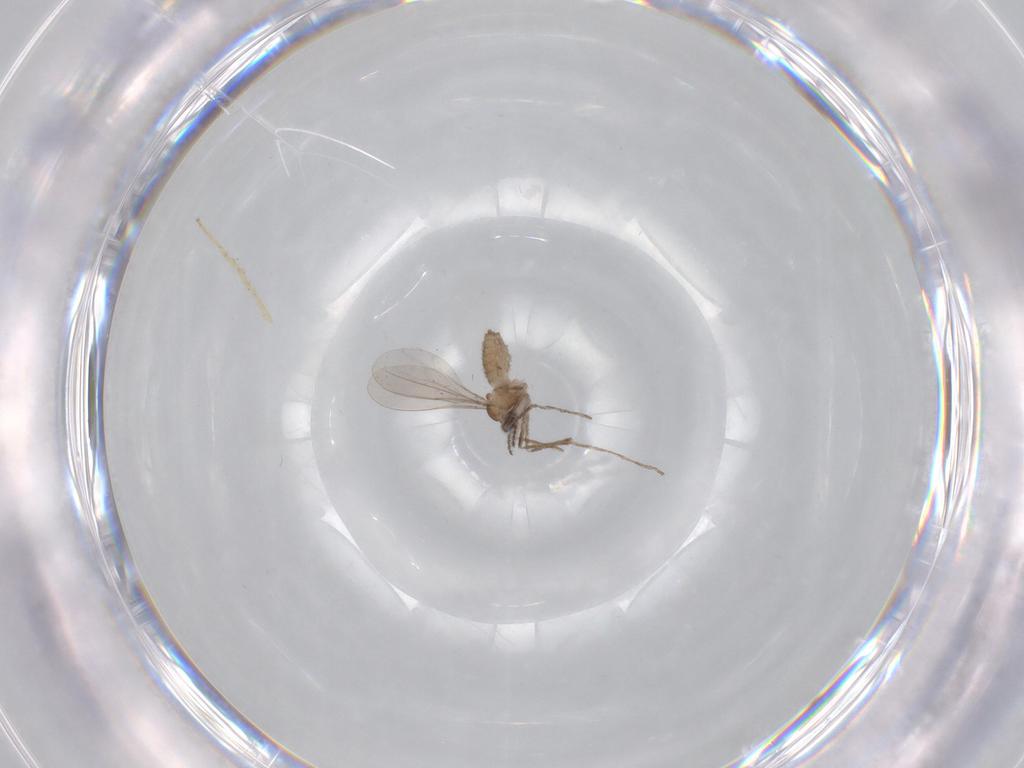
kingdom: Animalia
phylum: Arthropoda
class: Insecta
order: Diptera
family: Chironomidae
